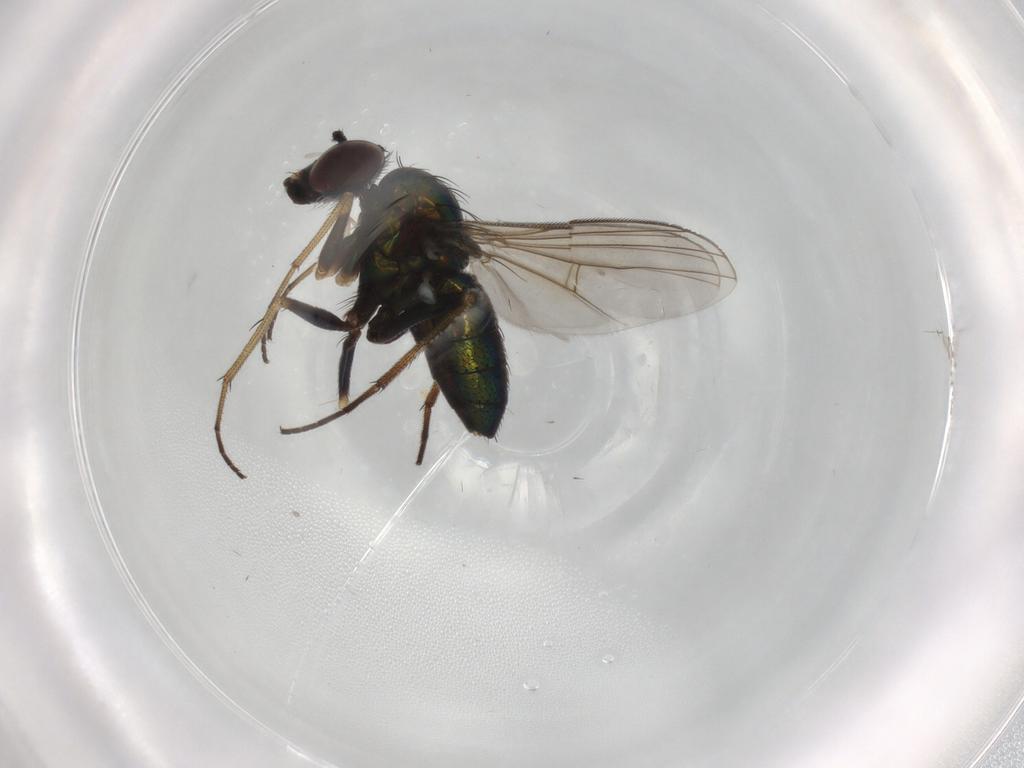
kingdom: Animalia
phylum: Arthropoda
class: Insecta
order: Diptera
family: Dolichopodidae
